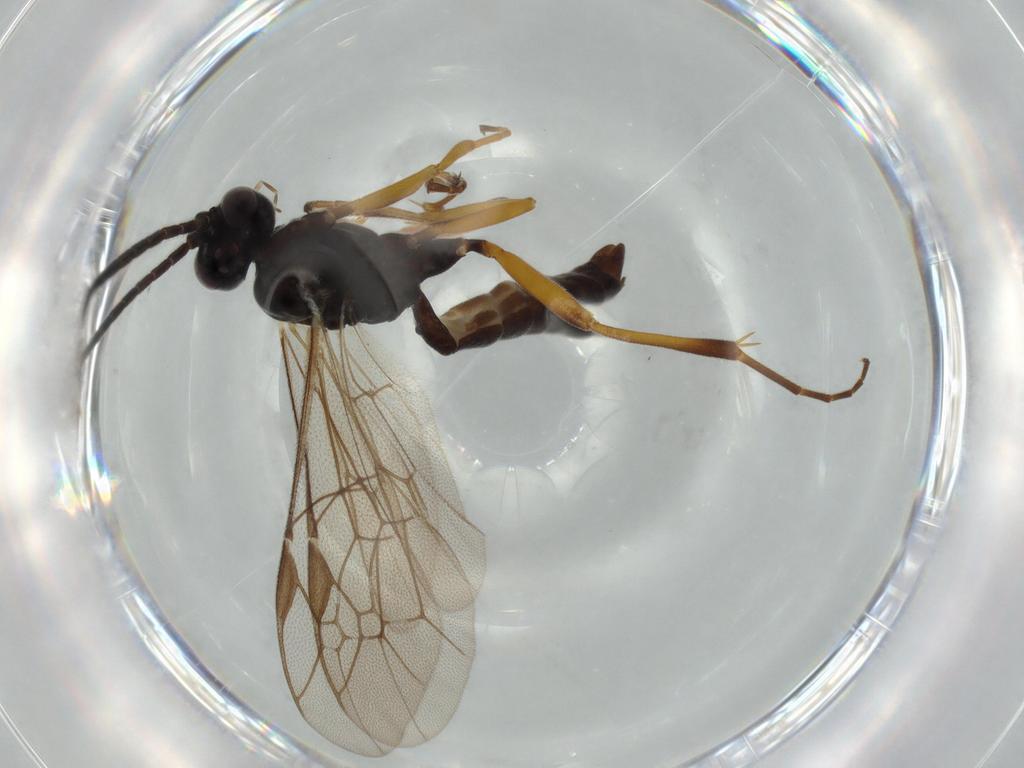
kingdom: Animalia
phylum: Arthropoda
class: Insecta
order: Hymenoptera
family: Ichneumonidae
